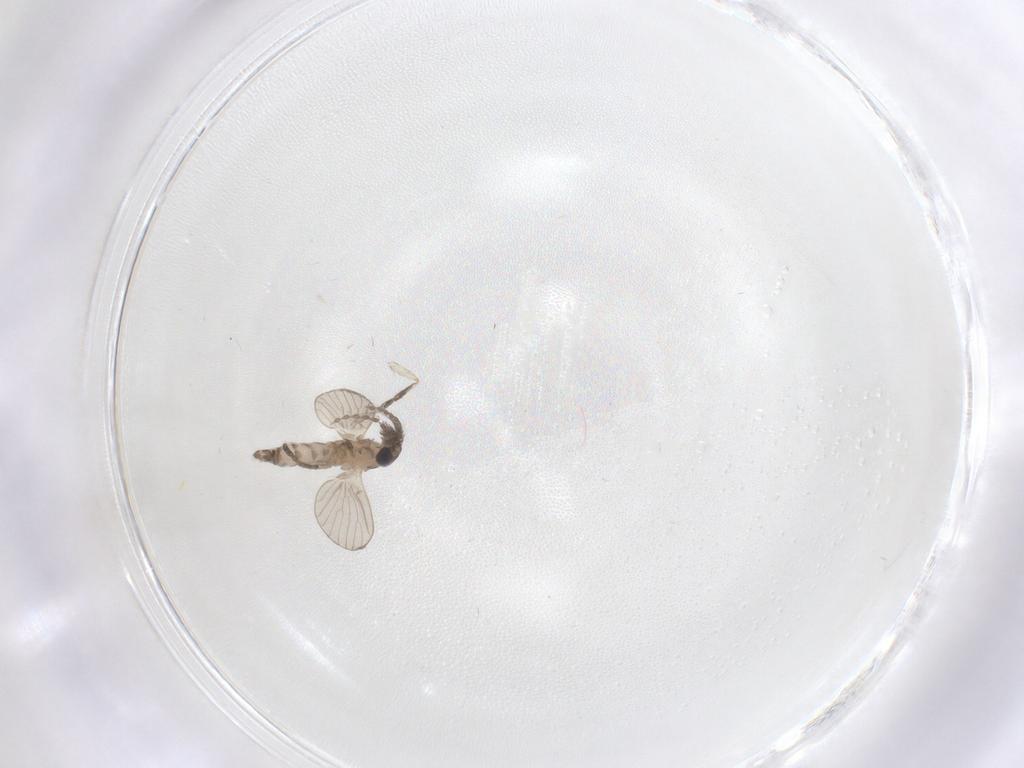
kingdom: Animalia
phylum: Arthropoda
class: Insecta
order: Diptera
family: Psychodidae
